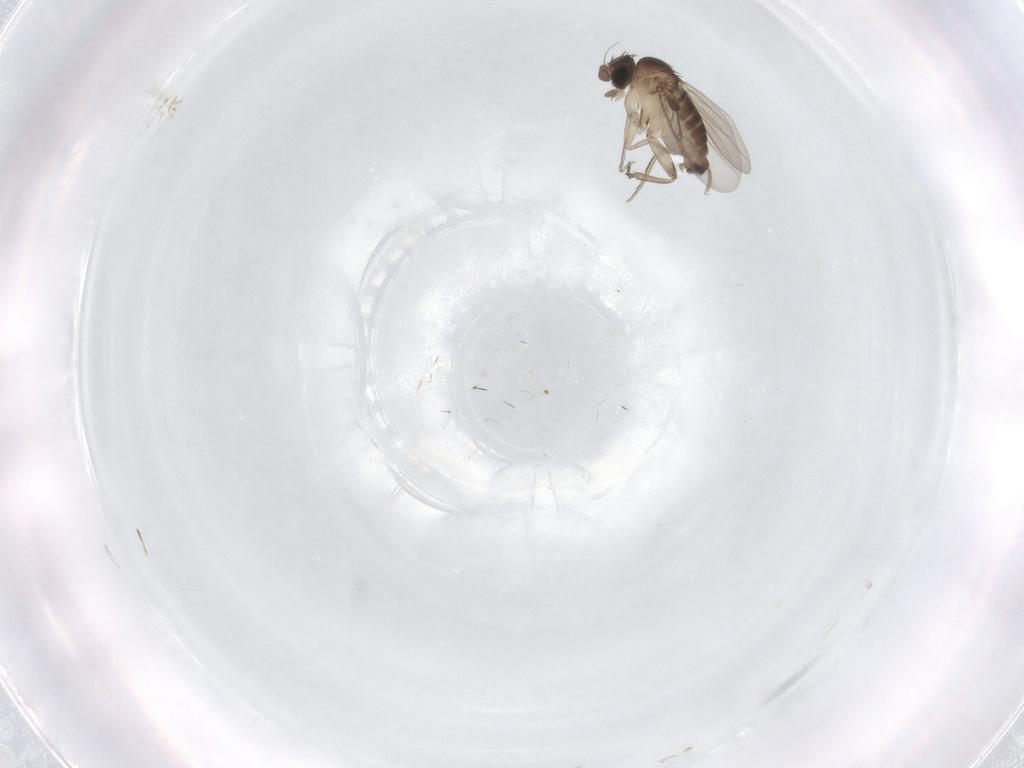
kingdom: Animalia
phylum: Arthropoda
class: Insecta
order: Diptera
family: Phoridae
